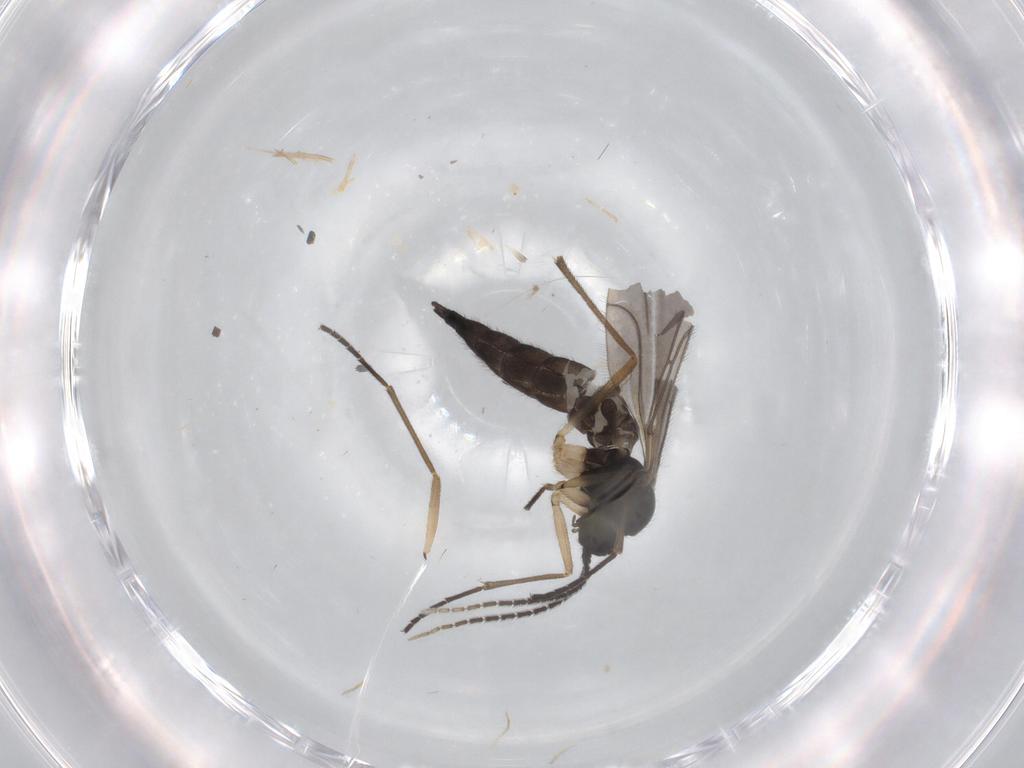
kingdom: Animalia
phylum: Arthropoda
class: Insecta
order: Diptera
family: Sciaridae
